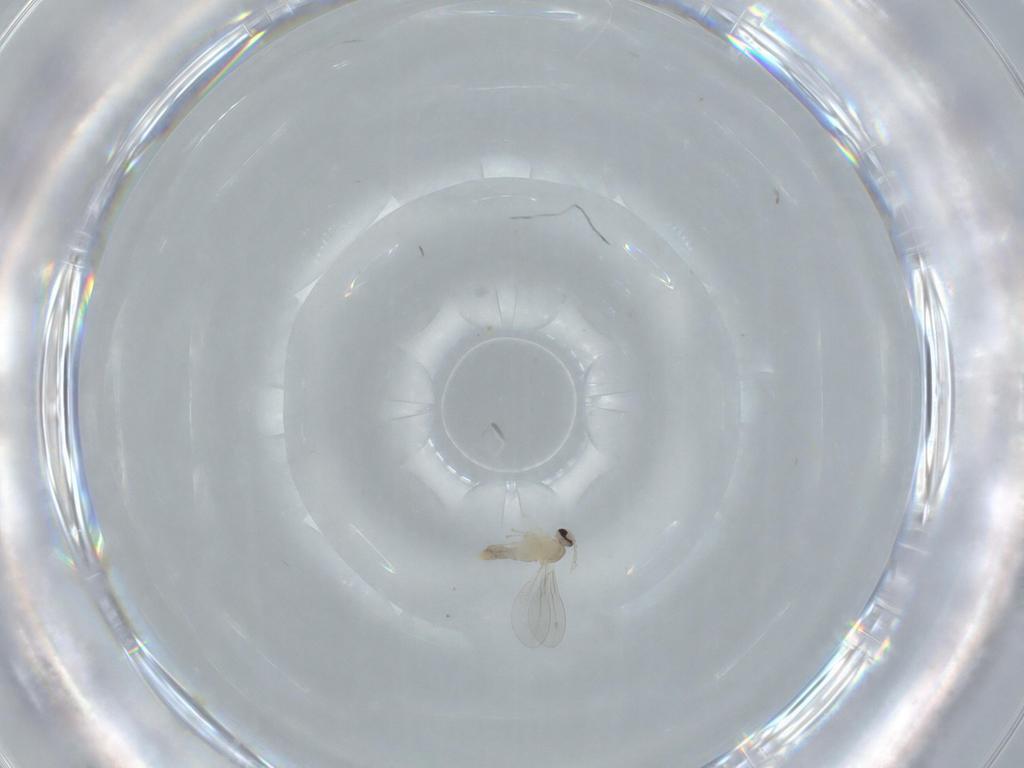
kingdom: Animalia
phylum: Arthropoda
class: Insecta
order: Diptera
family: Cecidomyiidae
